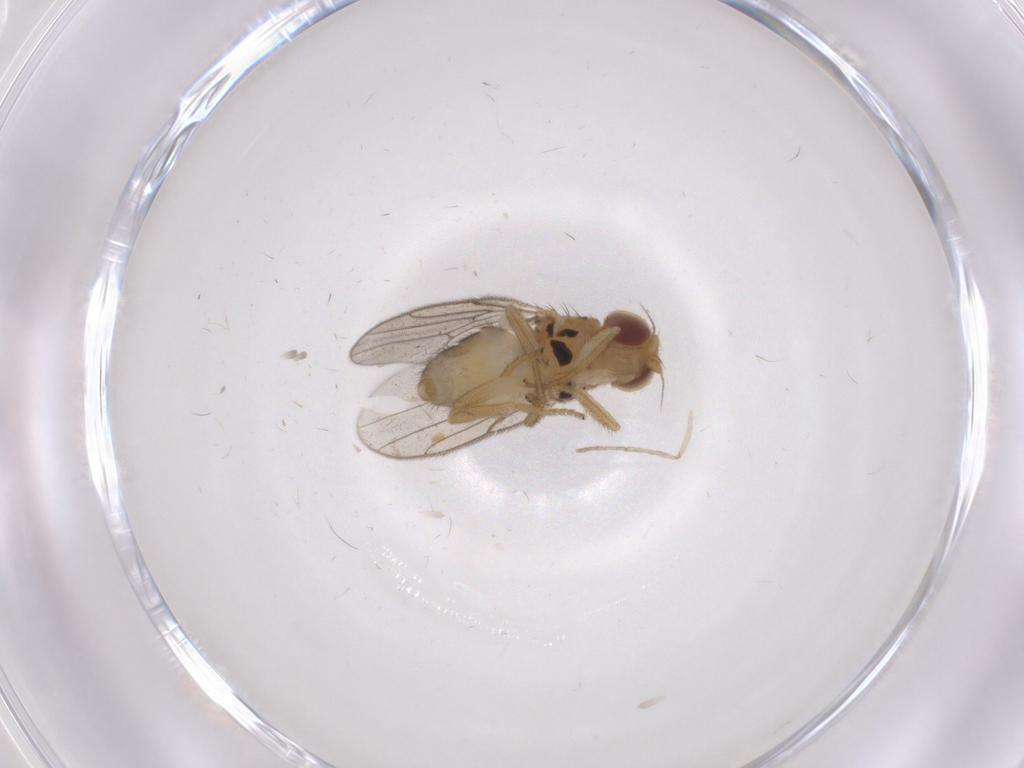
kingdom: Animalia
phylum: Arthropoda
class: Insecta
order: Diptera
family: Chloropidae
